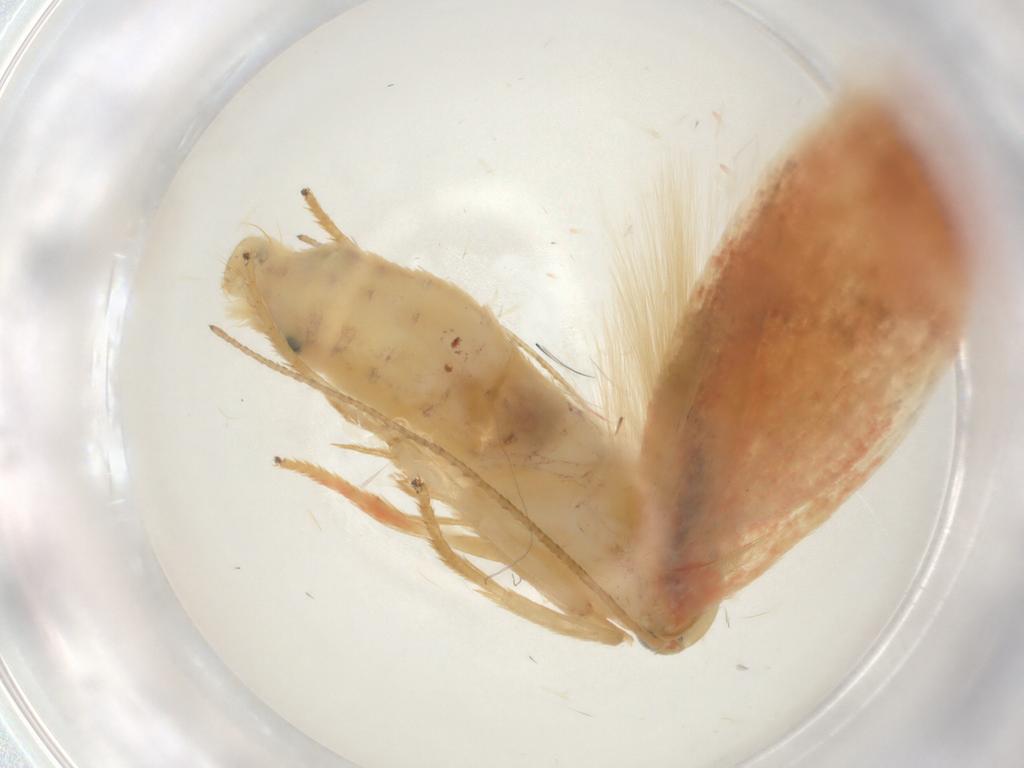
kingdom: Animalia
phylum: Arthropoda
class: Insecta
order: Lepidoptera
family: Erebidae
